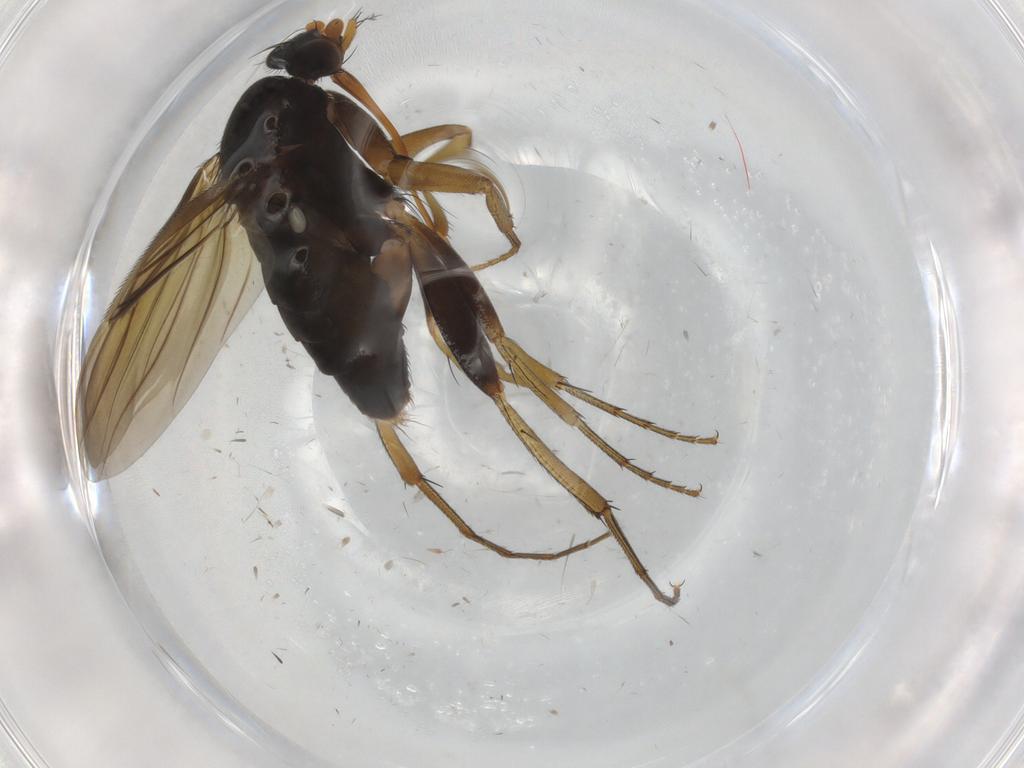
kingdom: Animalia
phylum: Arthropoda
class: Insecta
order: Diptera
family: Phoridae
